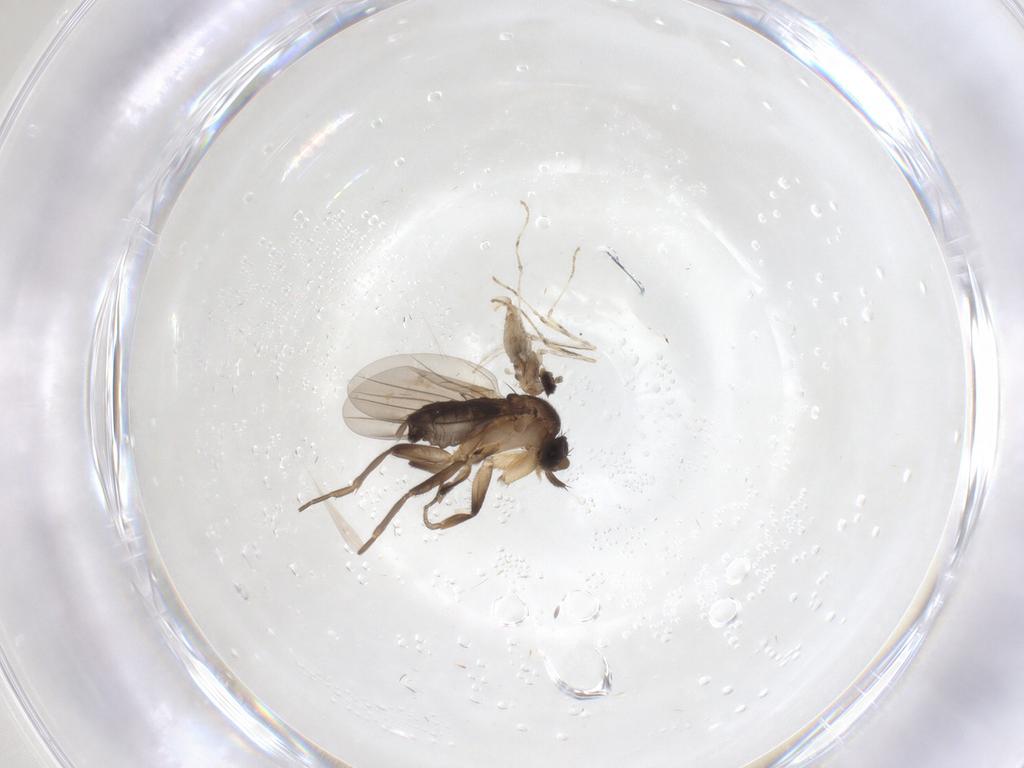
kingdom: Animalia
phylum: Arthropoda
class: Insecta
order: Diptera
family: Cecidomyiidae
